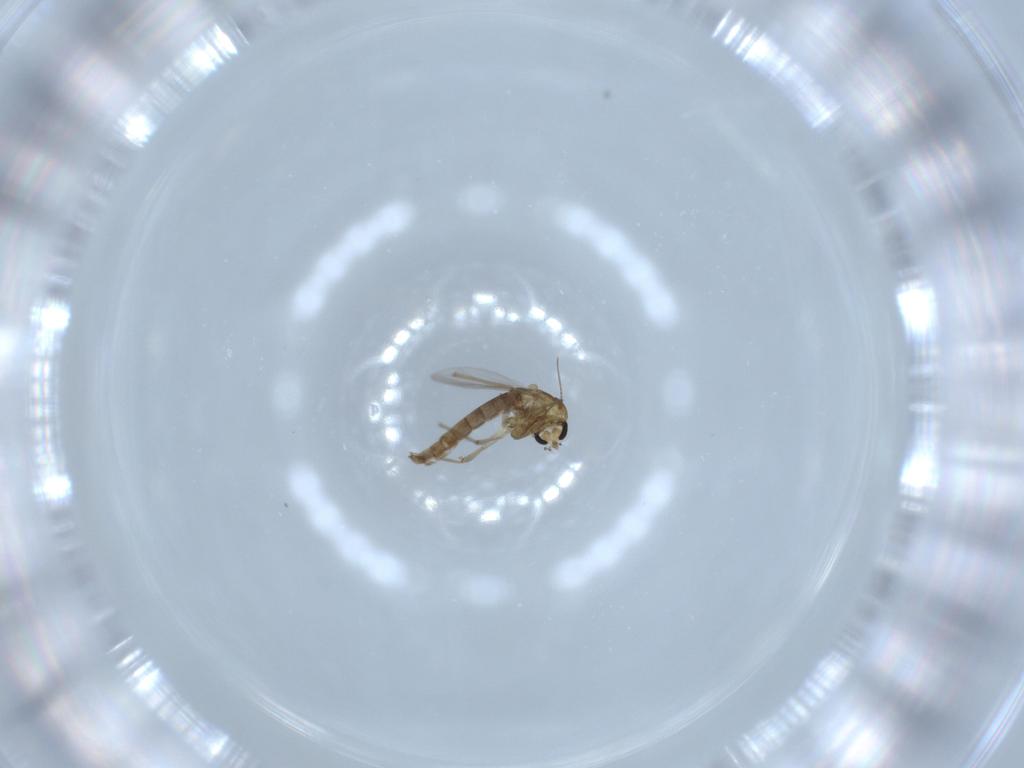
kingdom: Animalia
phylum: Arthropoda
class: Insecta
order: Diptera
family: Chironomidae
